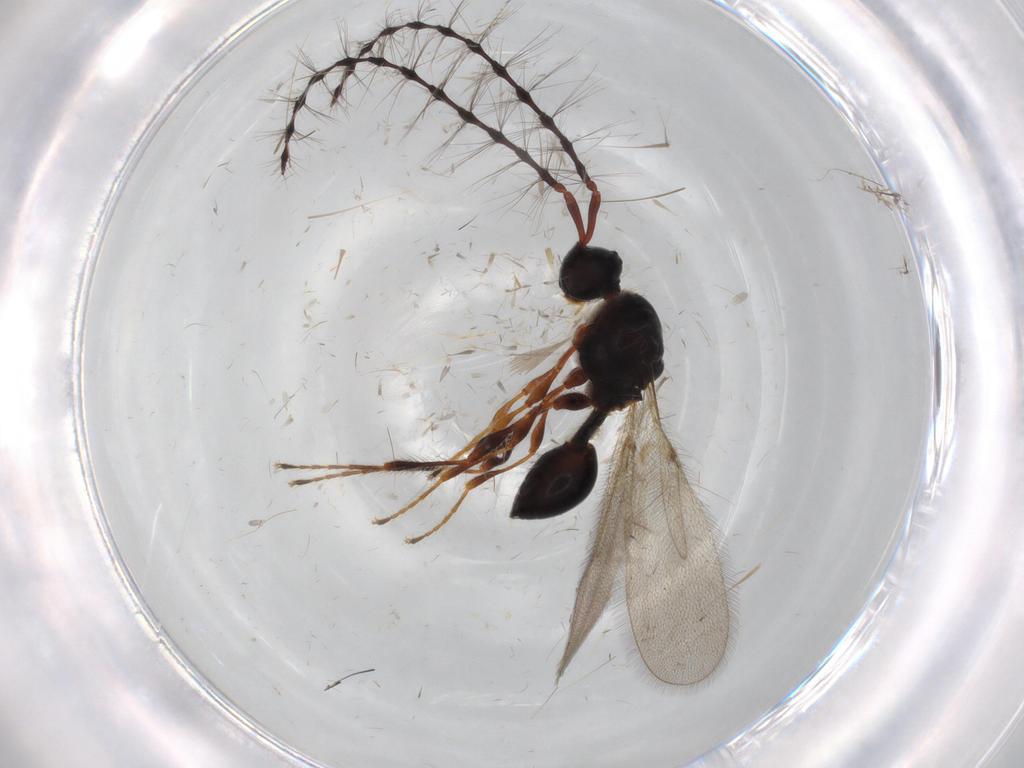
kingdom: Animalia
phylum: Arthropoda
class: Insecta
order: Hymenoptera
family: Diapriidae
